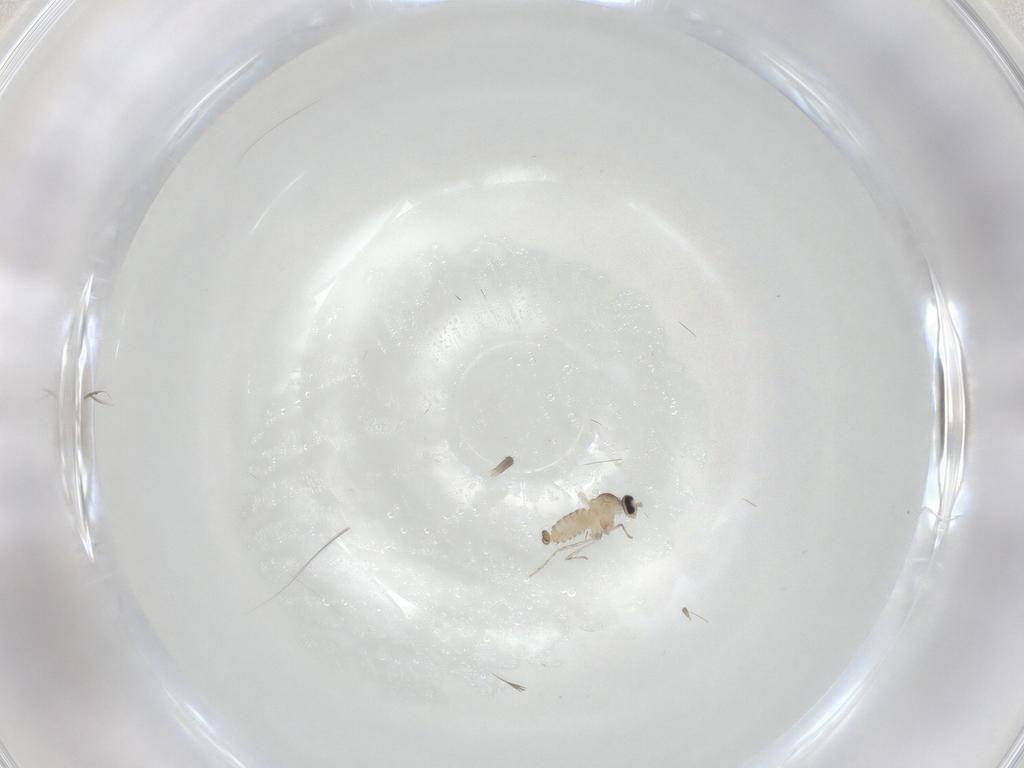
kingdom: Animalia
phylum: Arthropoda
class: Insecta
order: Diptera
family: Cecidomyiidae
